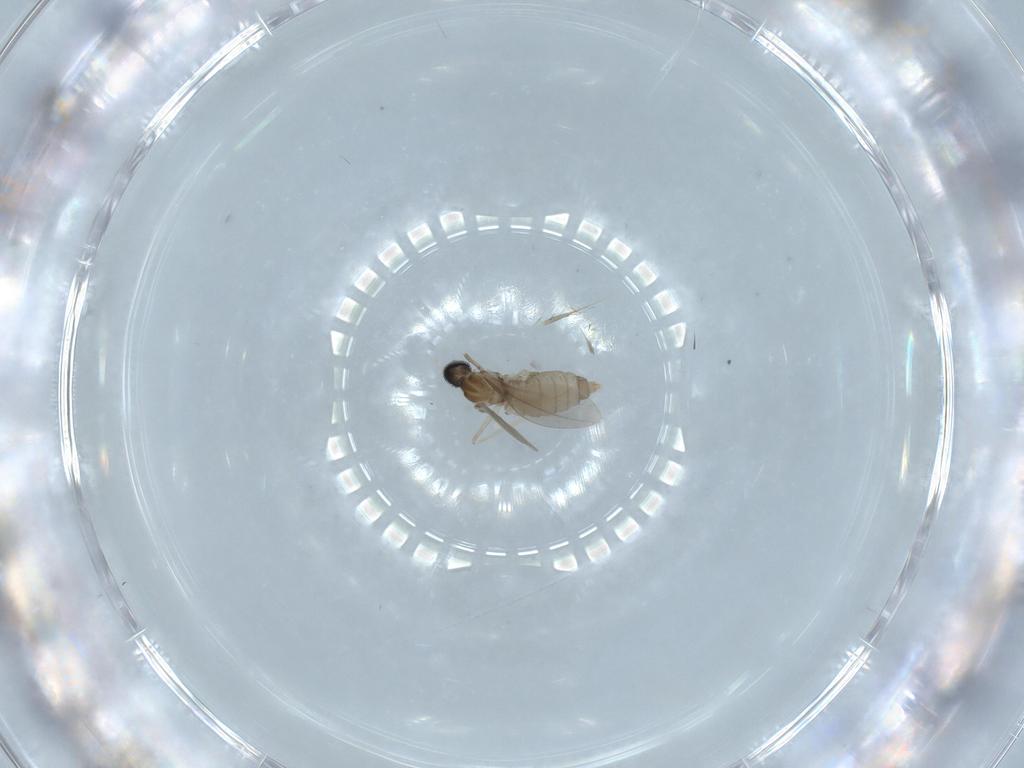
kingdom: Animalia
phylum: Arthropoda
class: Insecta
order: Diptera
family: Cecidomyiidae
